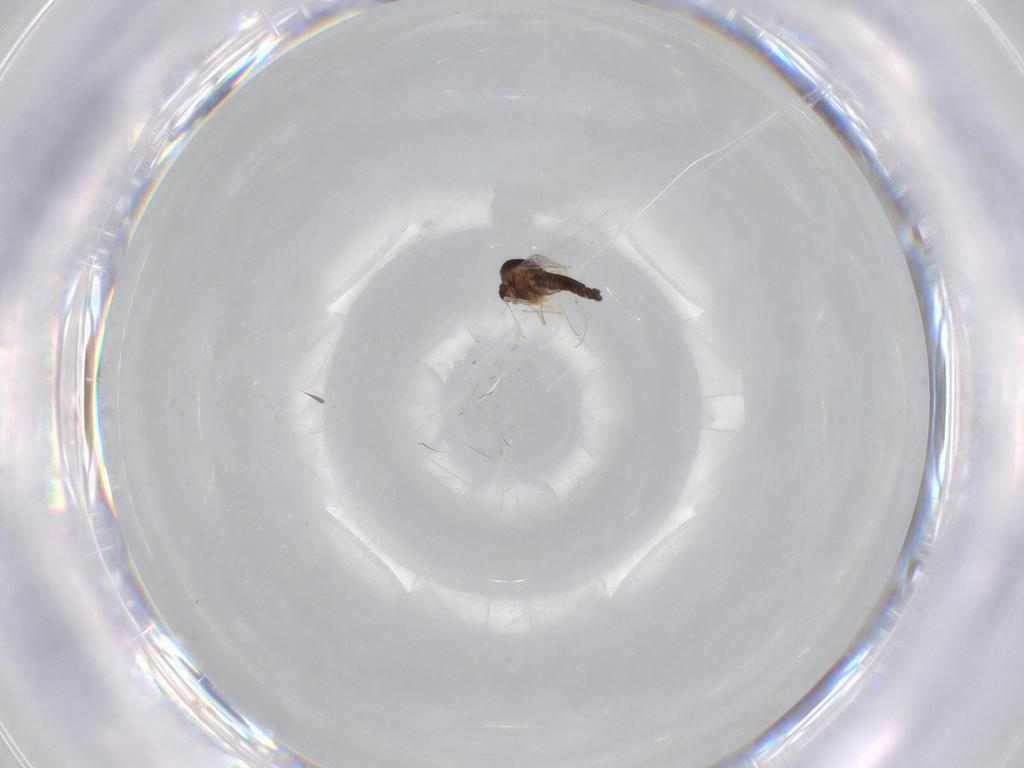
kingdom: Animalia
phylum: Arthropoda
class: Insecta
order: Diptera
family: Chironomidae
